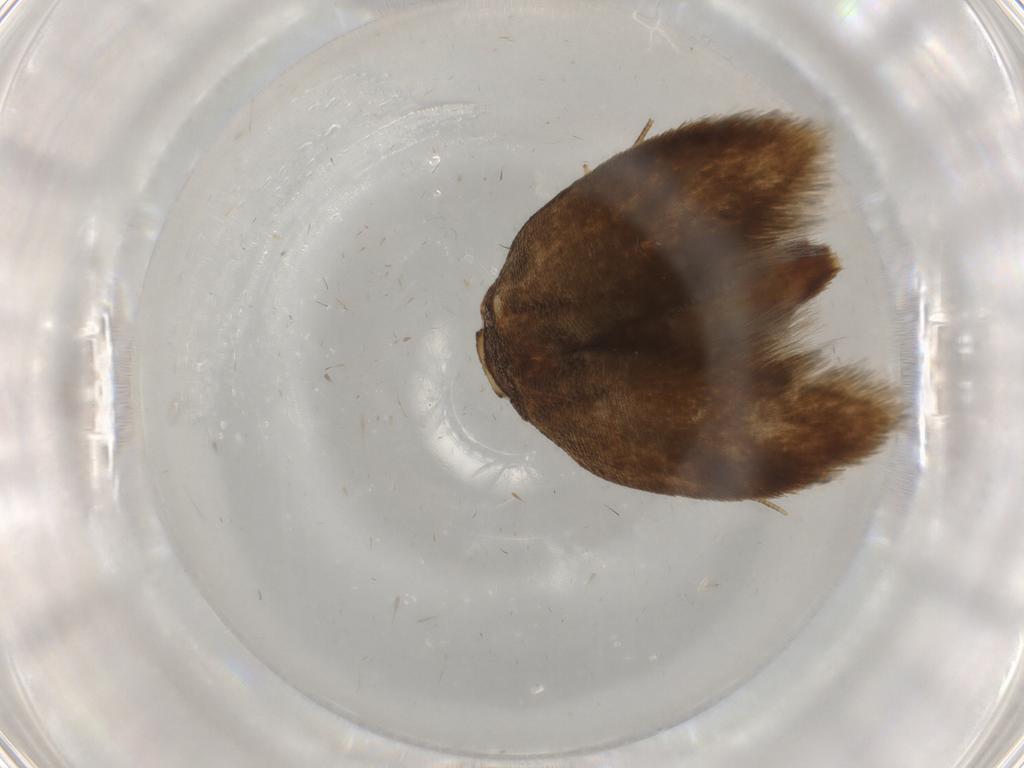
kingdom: Animalia
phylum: Arthropoda
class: Insecta
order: Lepidoptera
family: Tineidae
